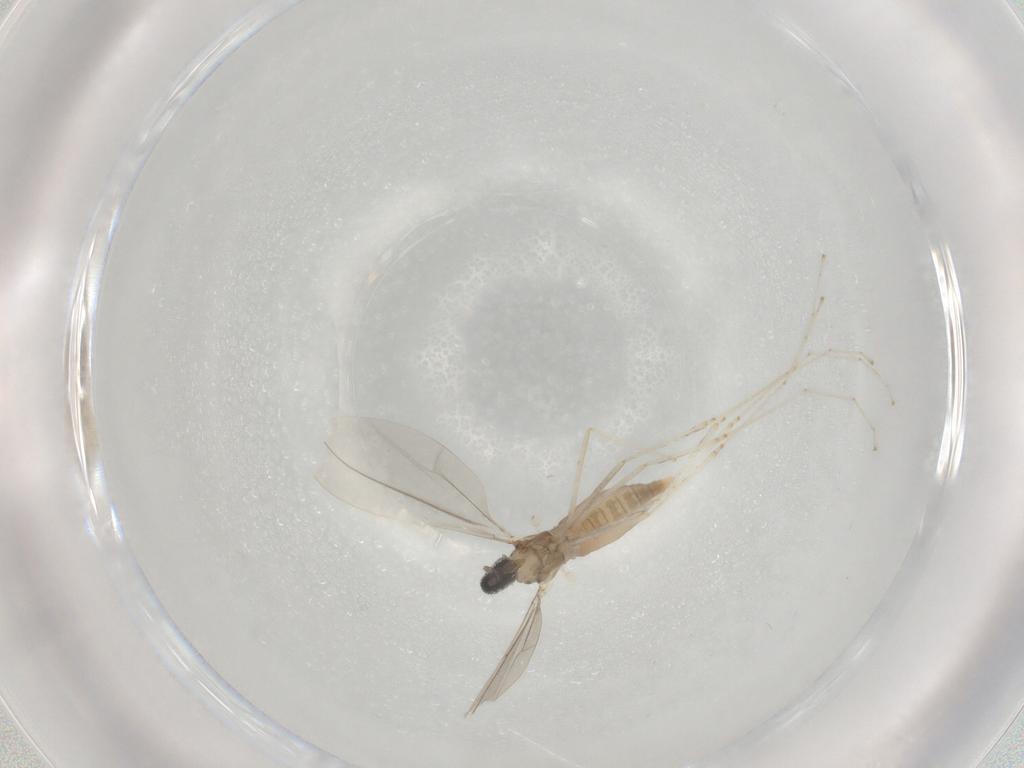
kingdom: Animalia
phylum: Arthropoda
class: Insecta
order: Diptera
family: Cecidomyiidae
